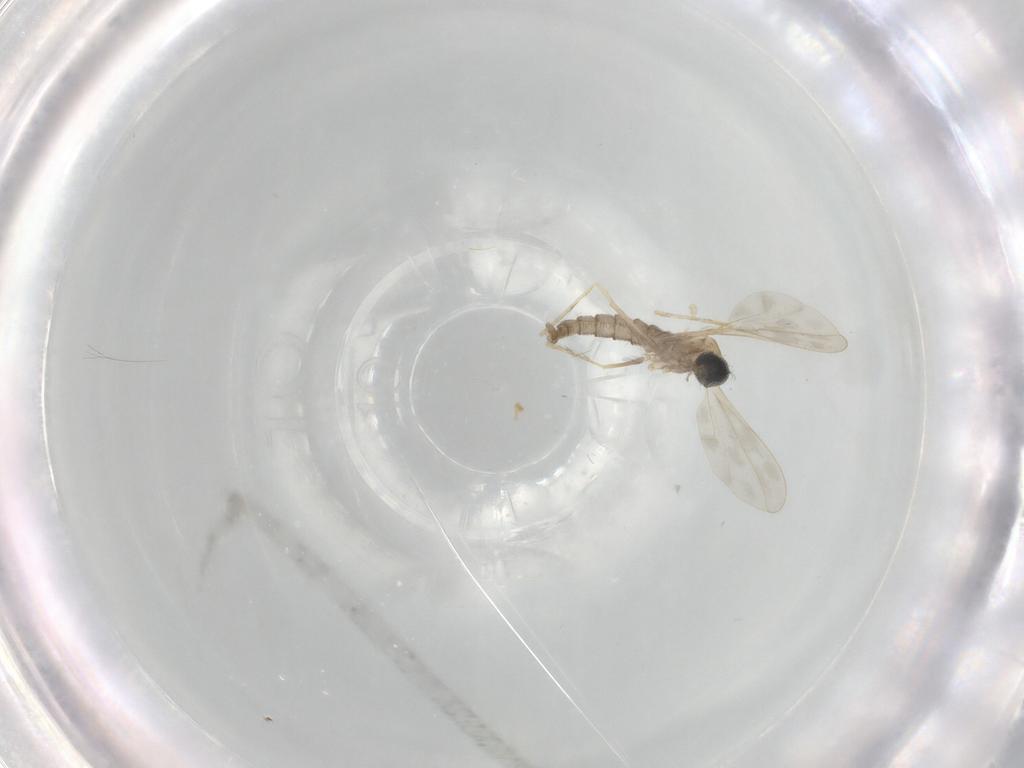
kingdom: Animalia
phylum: Arthropoda
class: Insecta
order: Diptera
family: Cecidomyiidae
